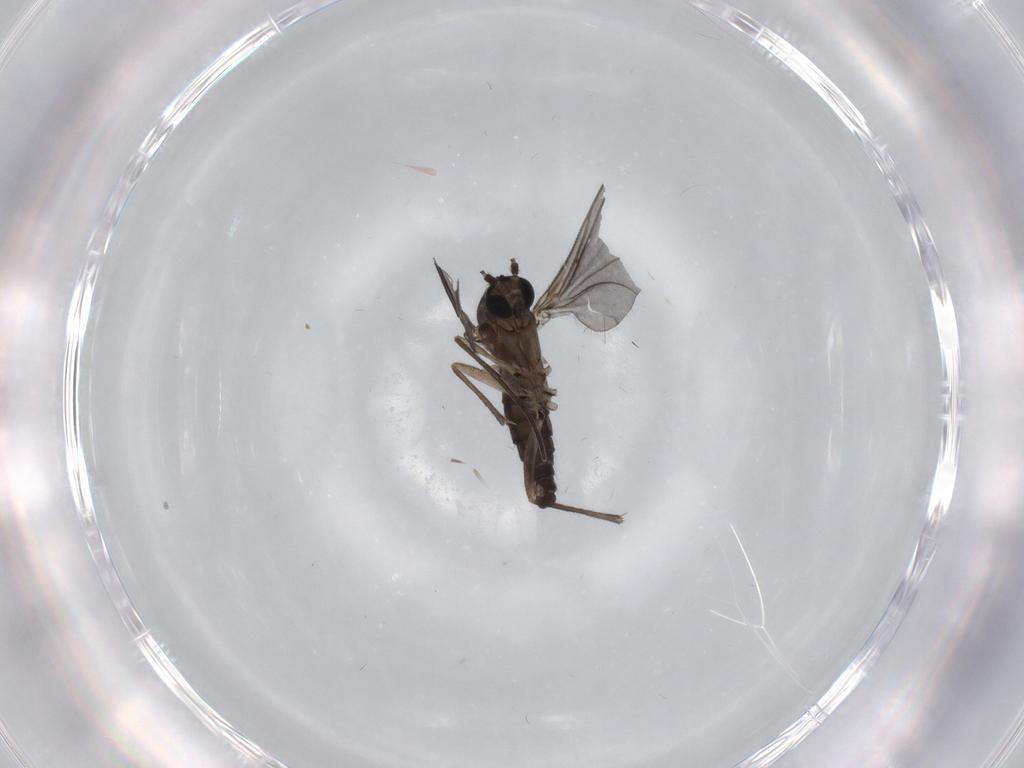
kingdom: Animalia
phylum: Arthropoda
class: Insecta
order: Diptera
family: Sciaridae
